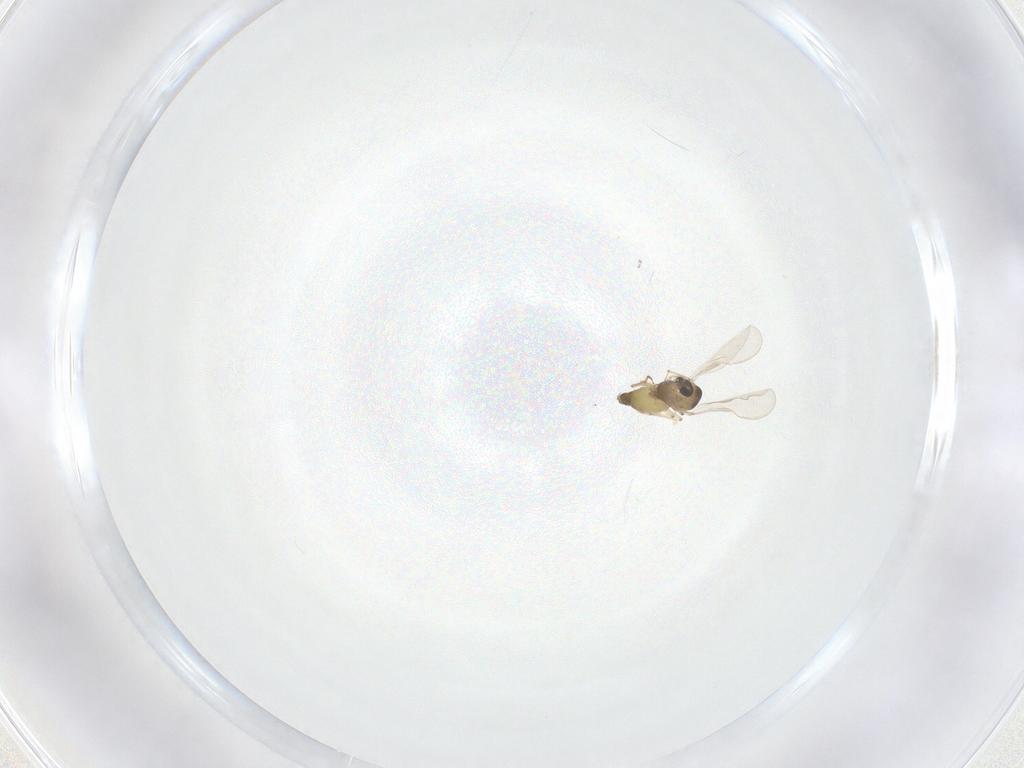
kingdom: Animalia
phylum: Arthropoda
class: Insecta
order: Diptera
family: Chironomidae
